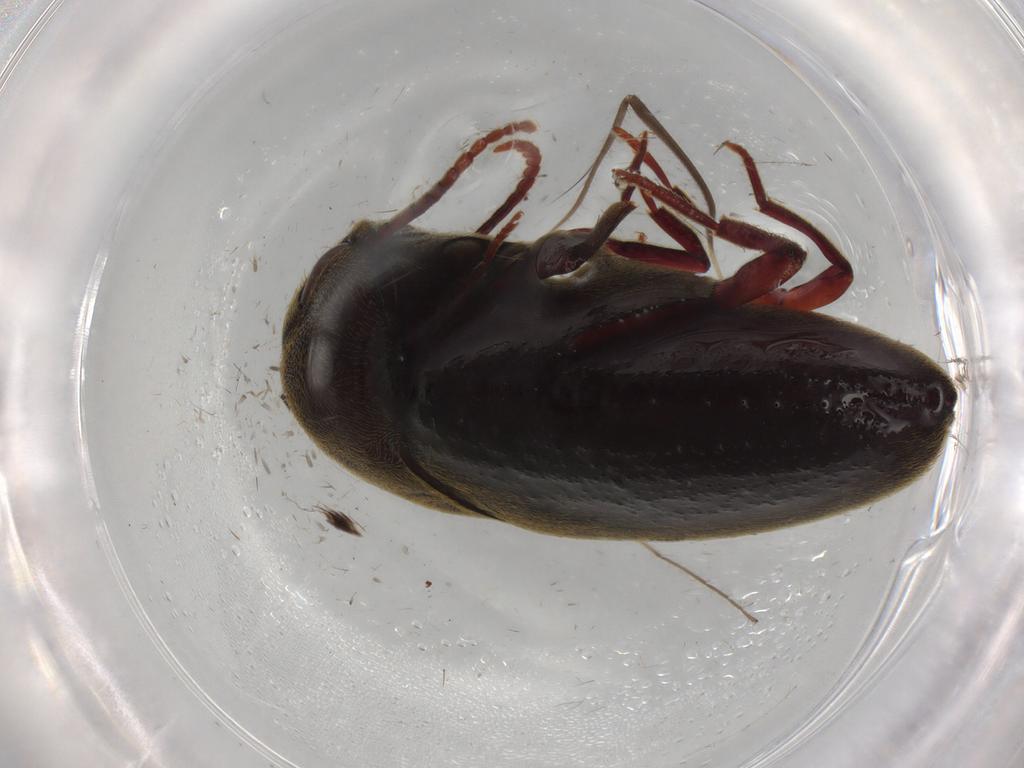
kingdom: Animalia
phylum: Arthropoda
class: Insecta
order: Coleoptera
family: Eucnemidae
